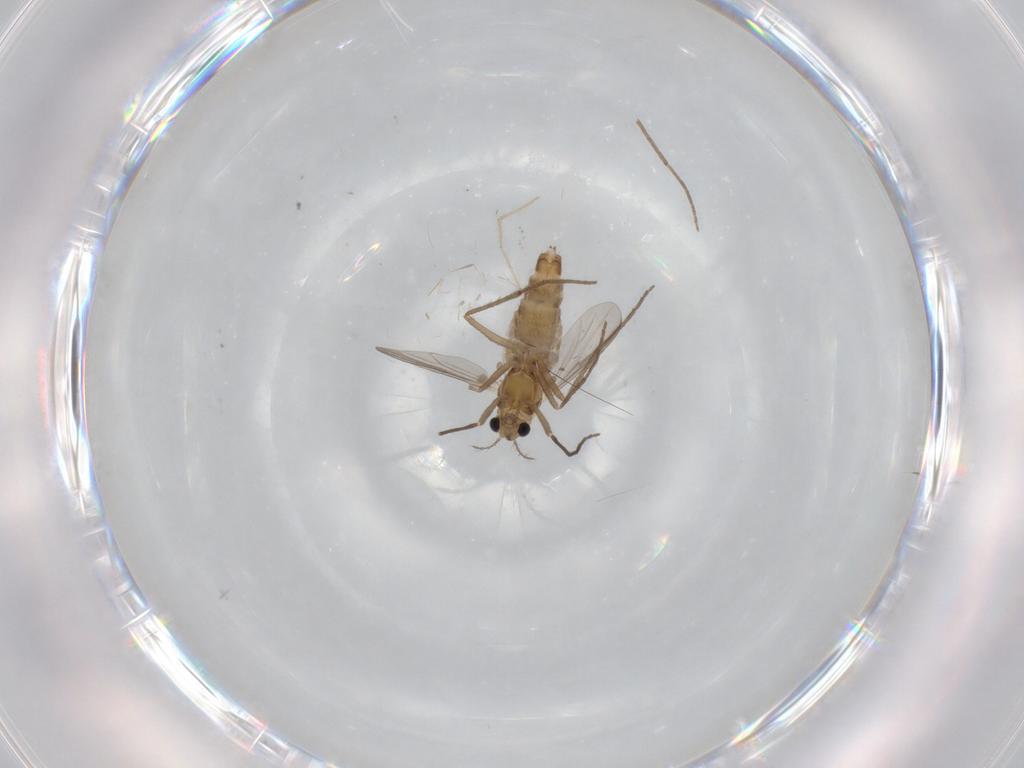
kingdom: Animalia
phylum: Arthropoda
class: Insecta
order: Diptera
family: Chironomidae
